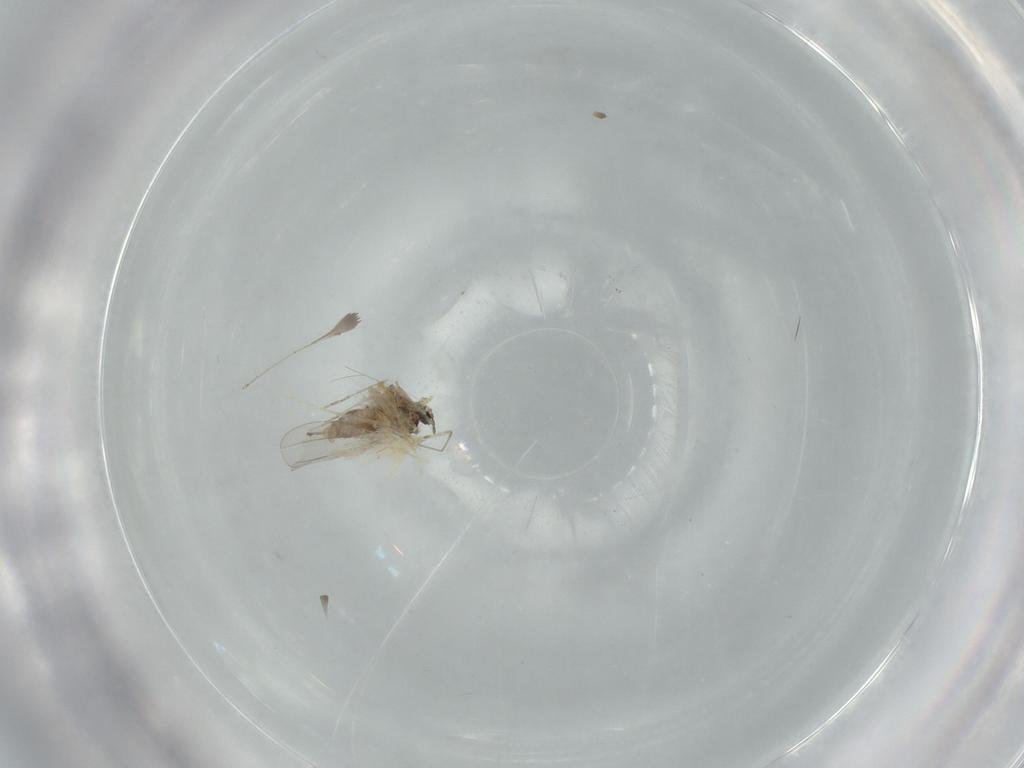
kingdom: Animalia
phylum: Arthropoda
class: Insecta
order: Diptera
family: Cecidomyiidae
